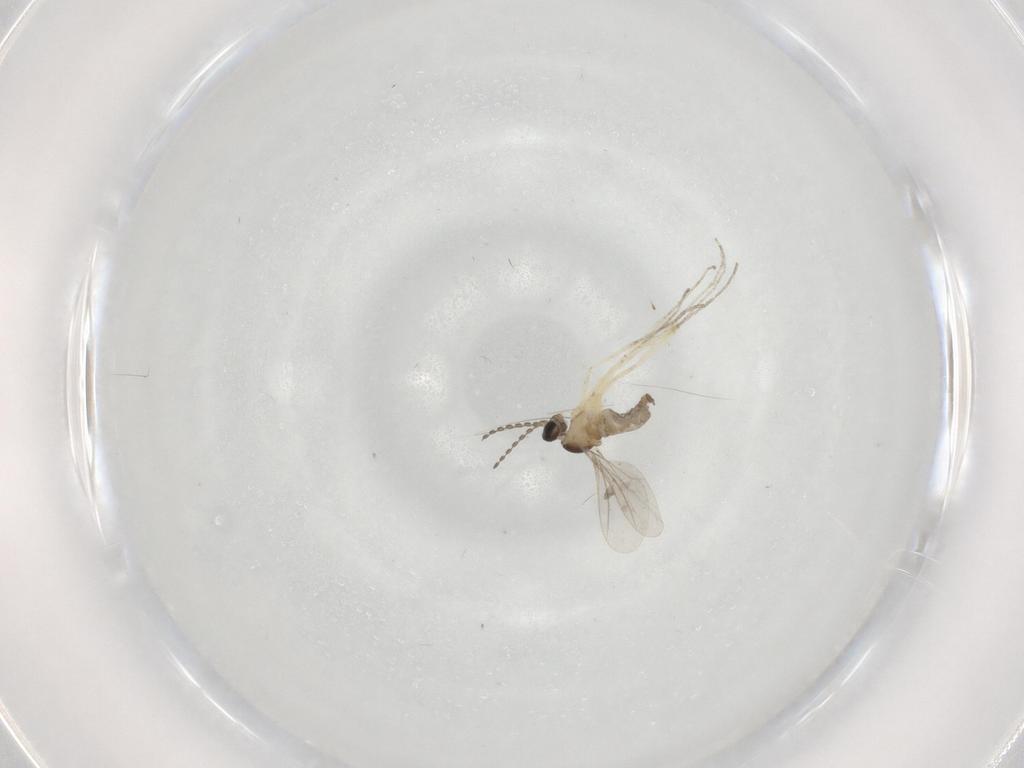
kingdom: Animalia
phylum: Arthropoda
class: Insecta
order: Diptera
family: Cecidomyiidae
